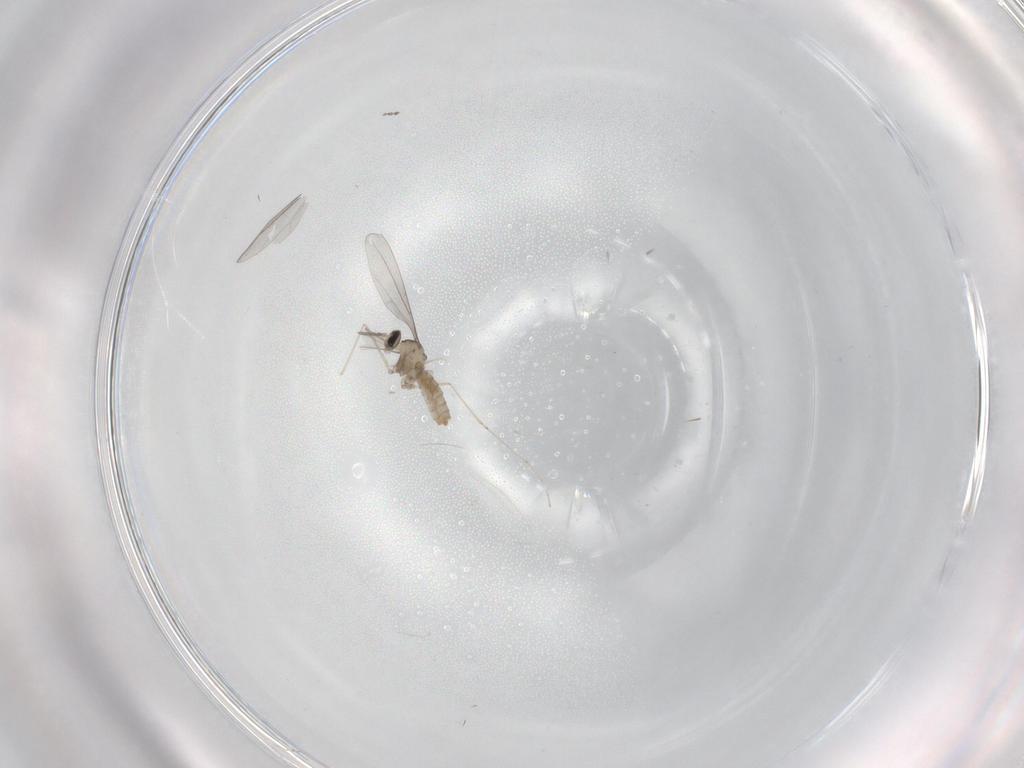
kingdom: Animalia
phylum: Arthropoda
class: Insecta
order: Diptera
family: Cecidomyiidae
